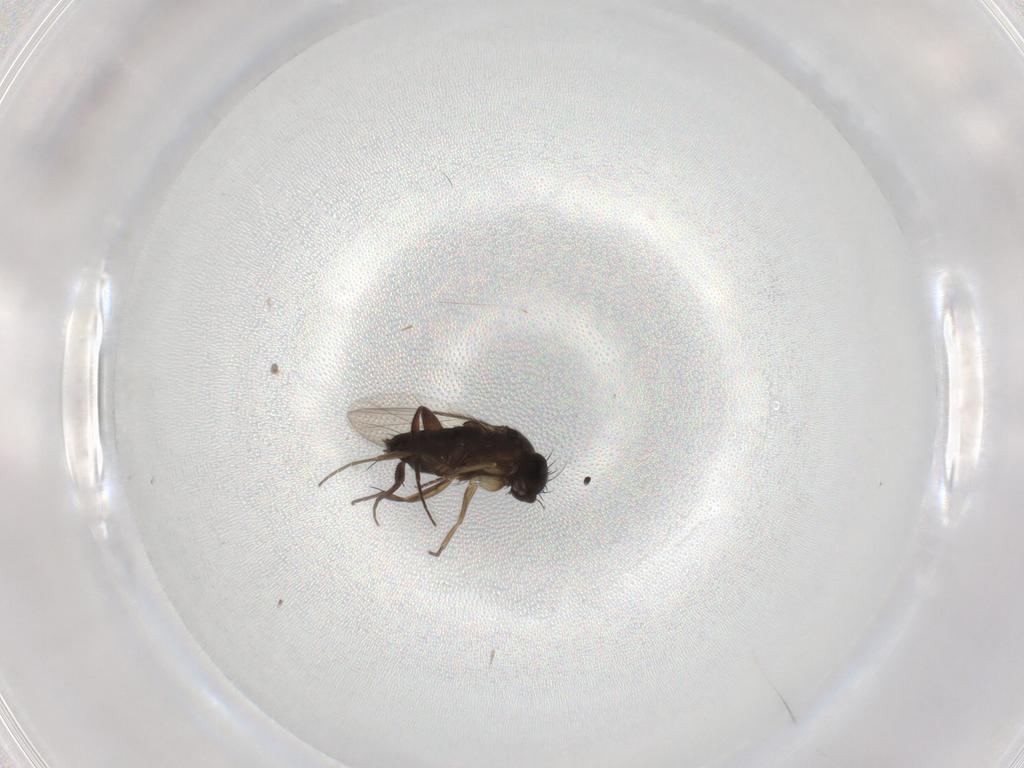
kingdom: Animalia
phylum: Arthropoda
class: Insecta
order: Diptera
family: Phoridae
